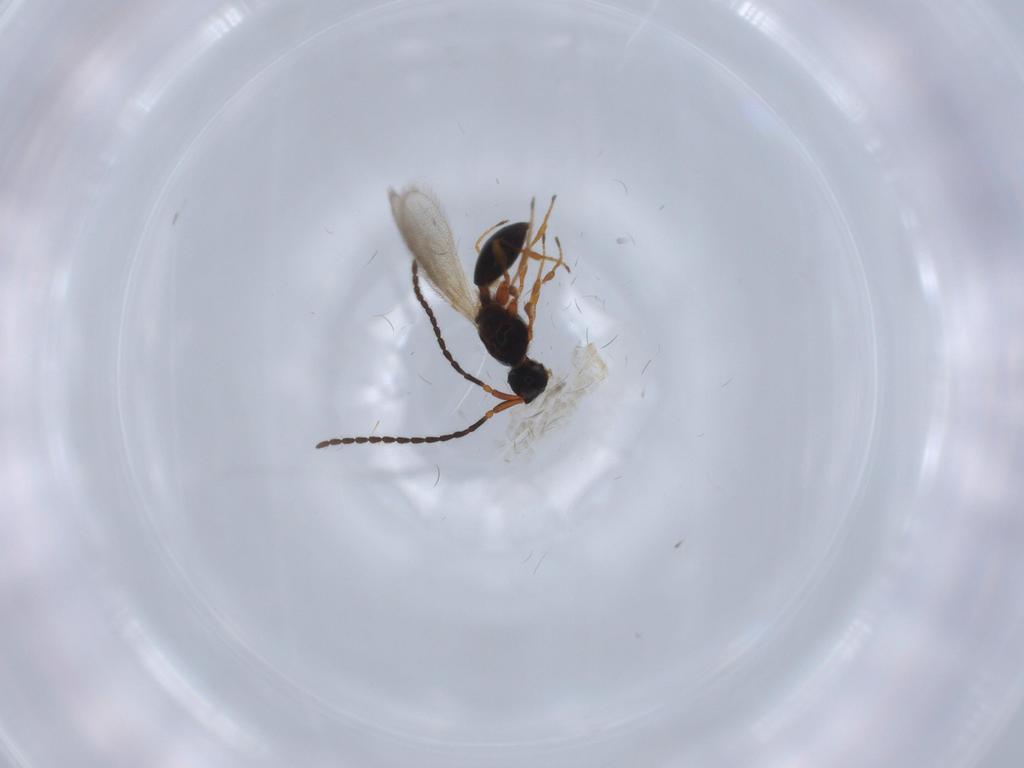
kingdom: Animalia
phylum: Arthropoda
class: Insecta
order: Hymenoptera
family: Diapriidae
